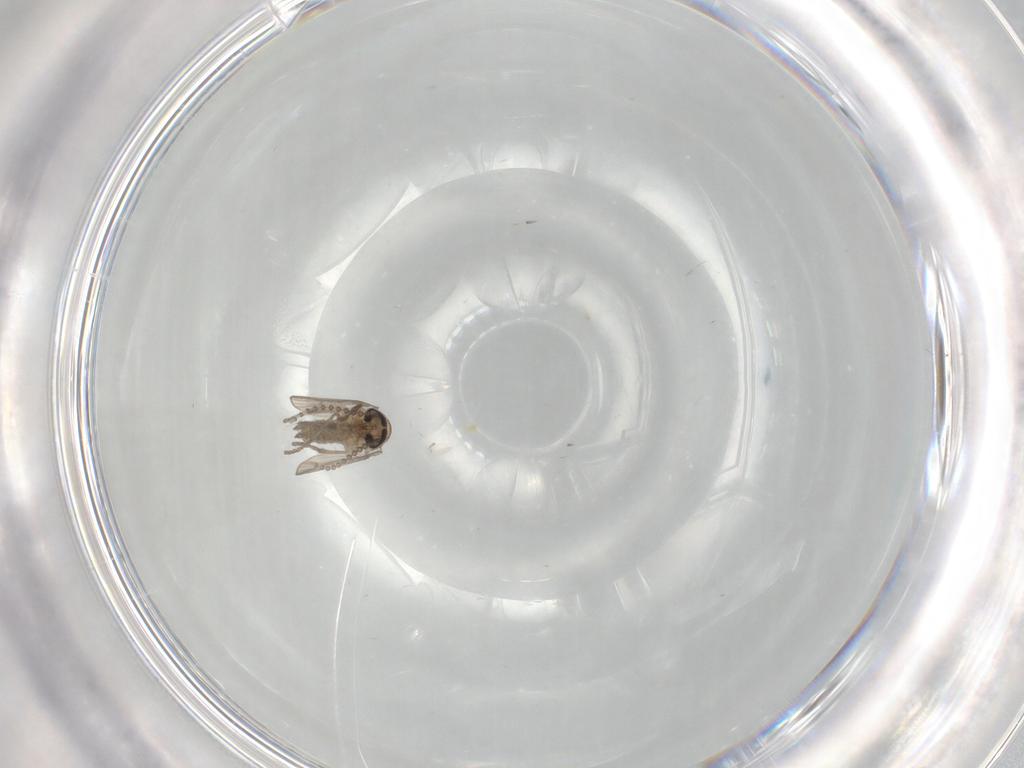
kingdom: Animalia
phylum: Arthropoda
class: Insecta
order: Diptera
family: Psychodidae
